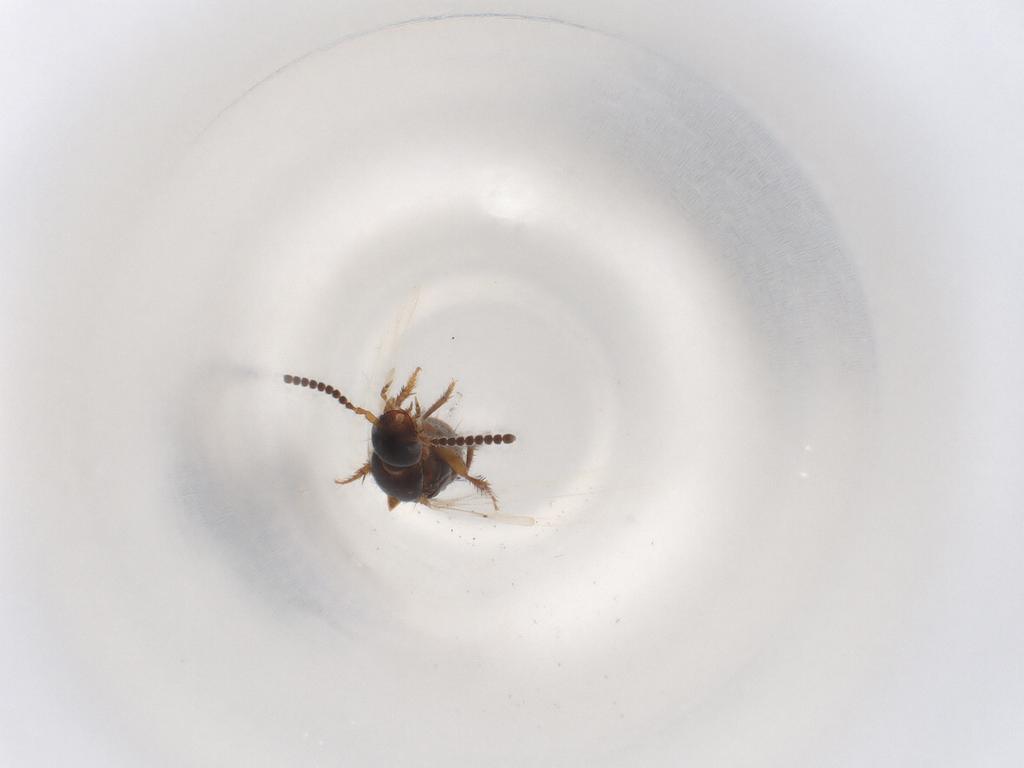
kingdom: Animalia
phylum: Arthropoda
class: Insecta
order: Coleoptera
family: Staphylinidae
